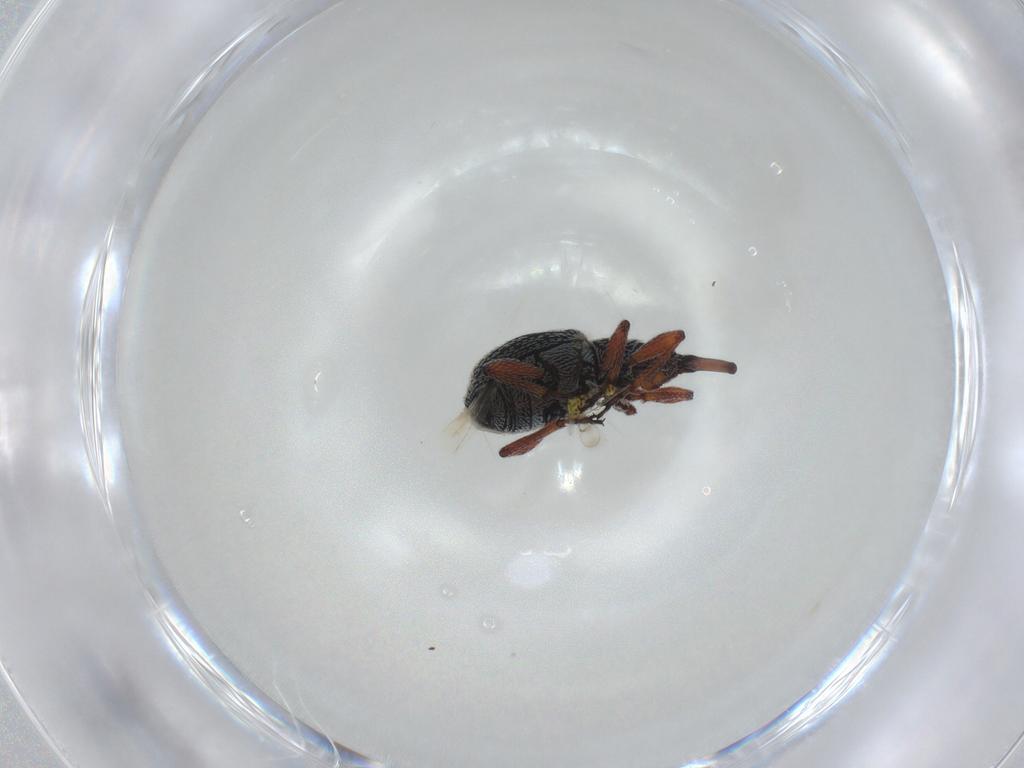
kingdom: Animalia
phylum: Arthropoda
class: Insecta
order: Coleoptera
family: Brentidae
